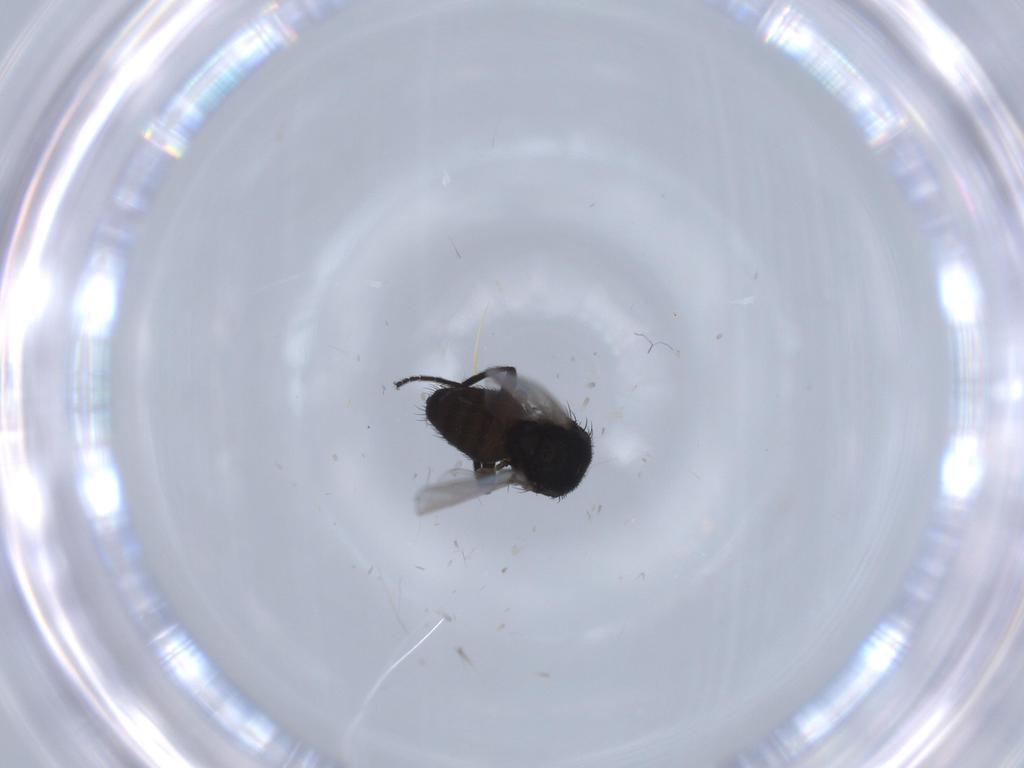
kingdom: Animalia
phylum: Arthropoda
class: Insecta
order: Diptera
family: Milichiidae
